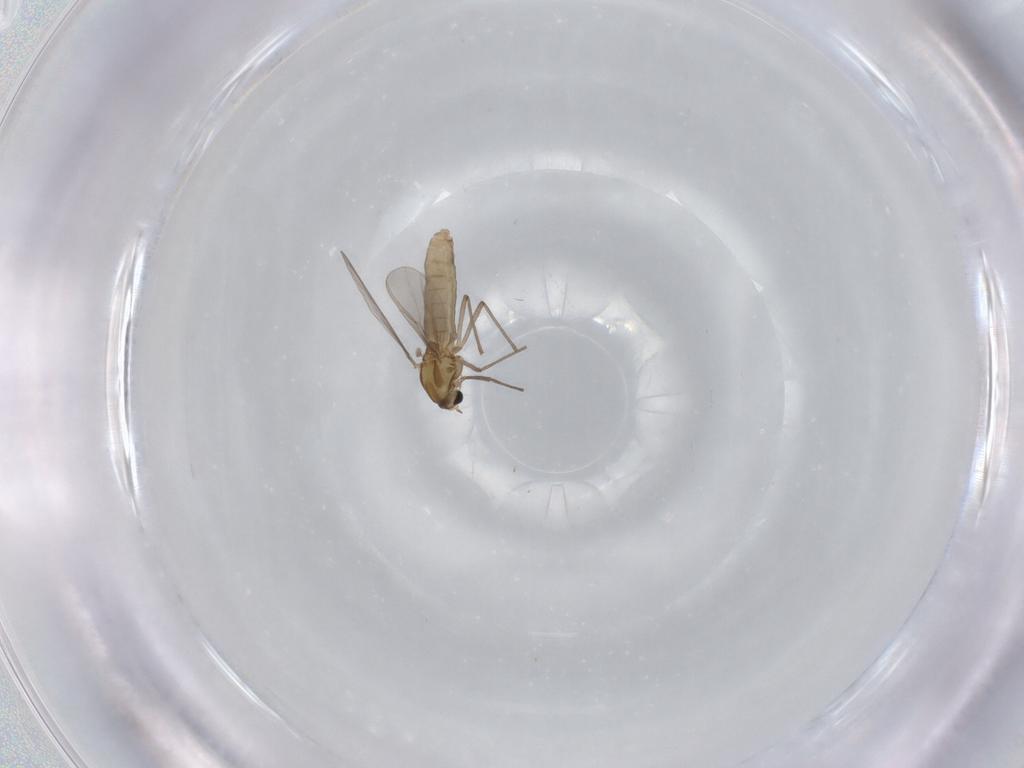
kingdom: Animalia
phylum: Arthropoda
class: Insecta
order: Diptera
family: Chironomidae
